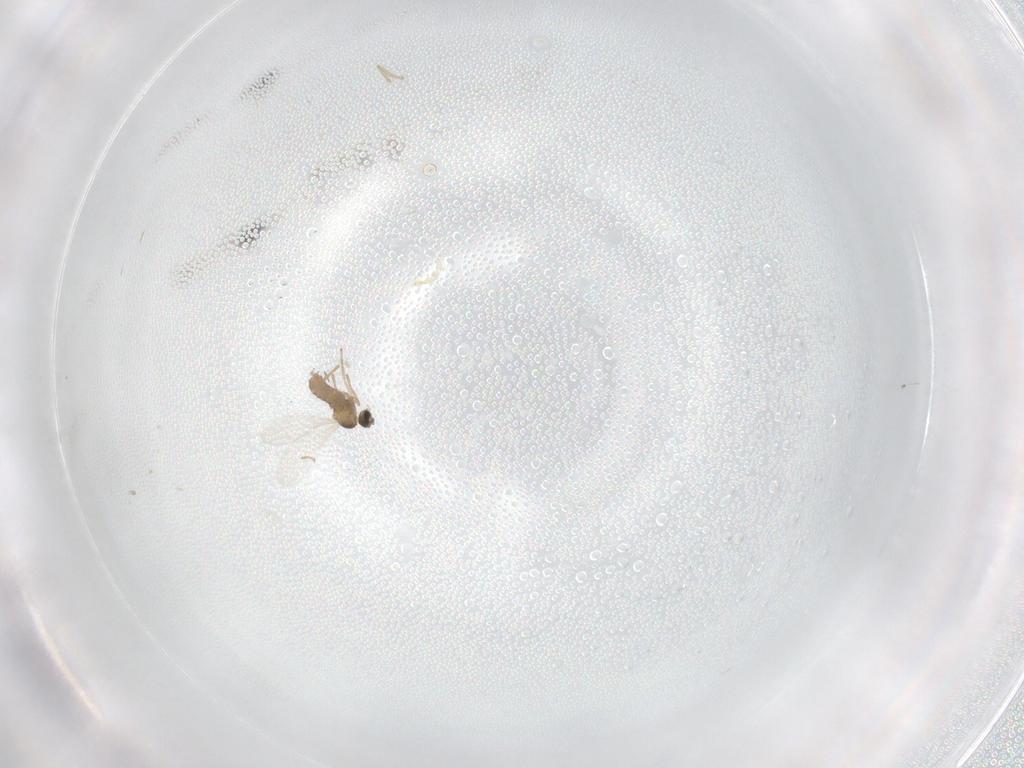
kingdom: Animalia
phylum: Arthropoda
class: Insecta
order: Diptera
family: Cecidomyiidae
